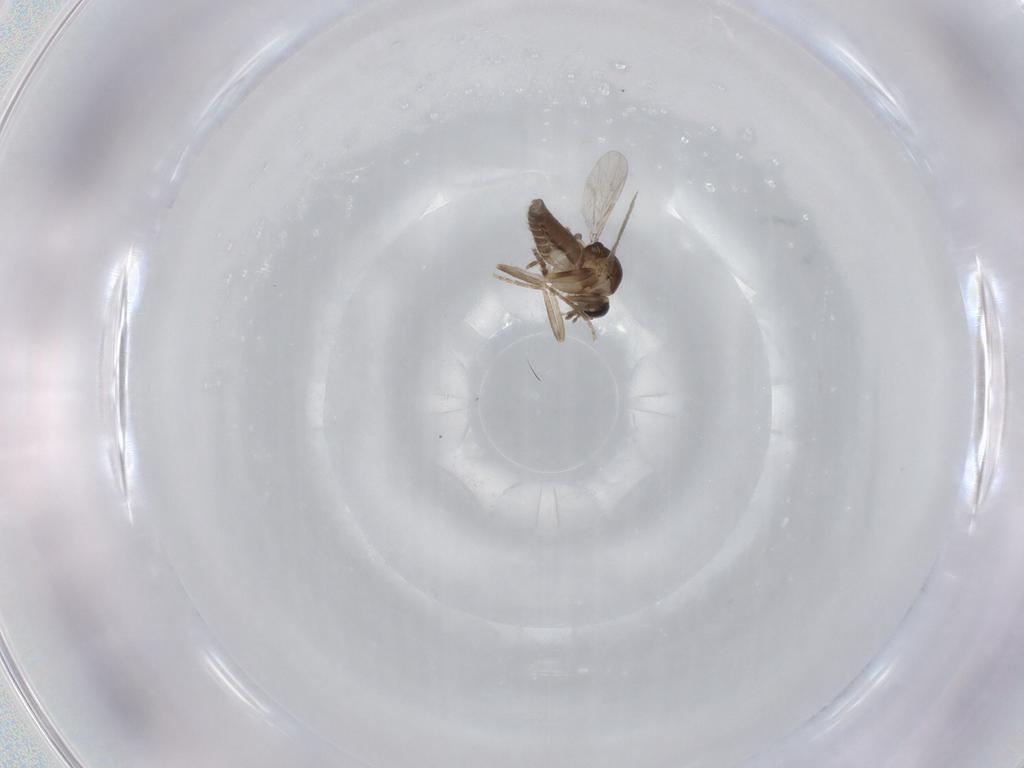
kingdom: Animalia
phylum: Arthropoda
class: Insecta
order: Diptera
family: Ceratopogonidae
